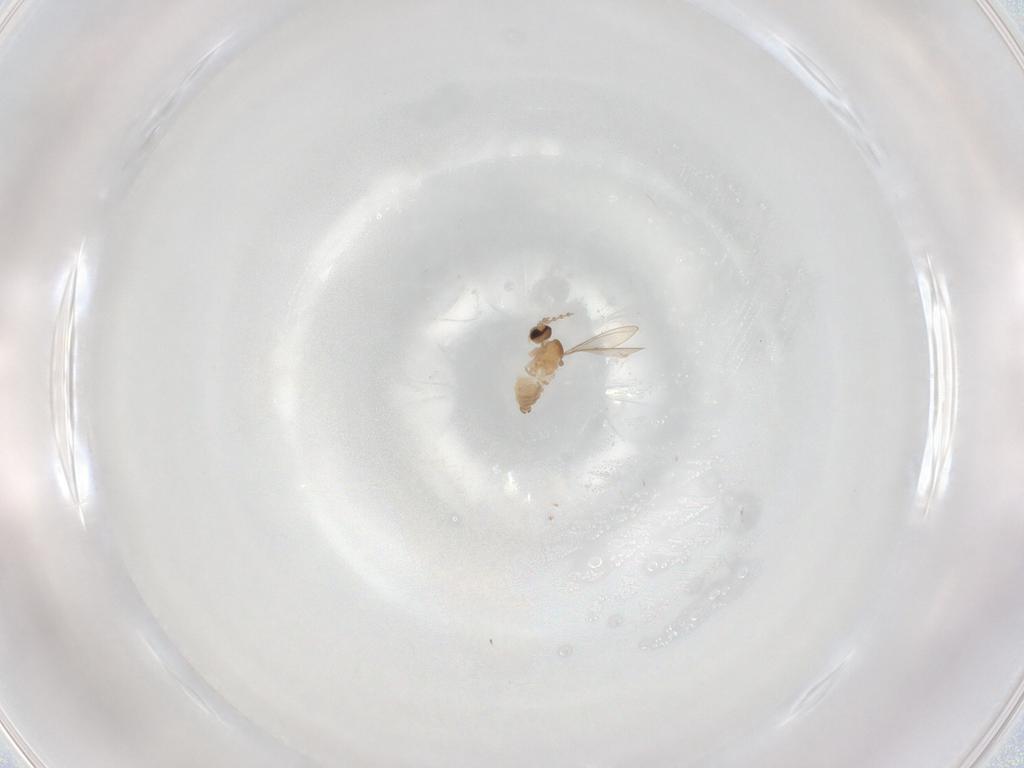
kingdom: Animalia
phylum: Arthropoda
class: Insecta
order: Diptera
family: Cecidomyiidae
